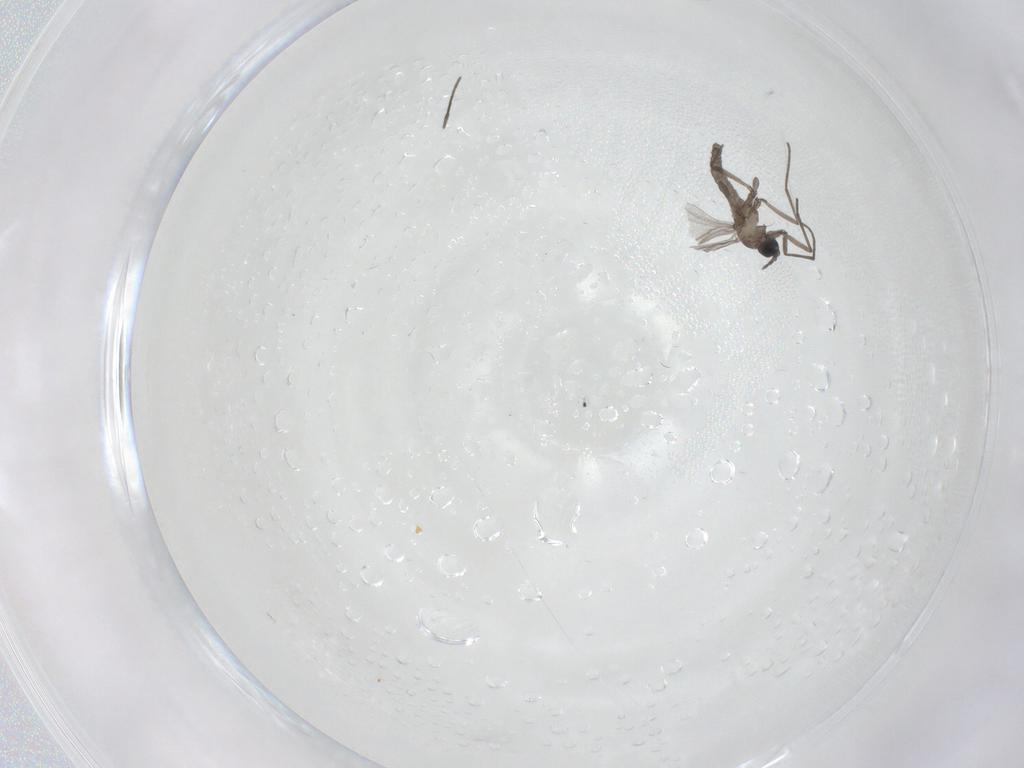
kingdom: Animalia
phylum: Arthropoda
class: Insecta
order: Diptera
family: Sciaridae
